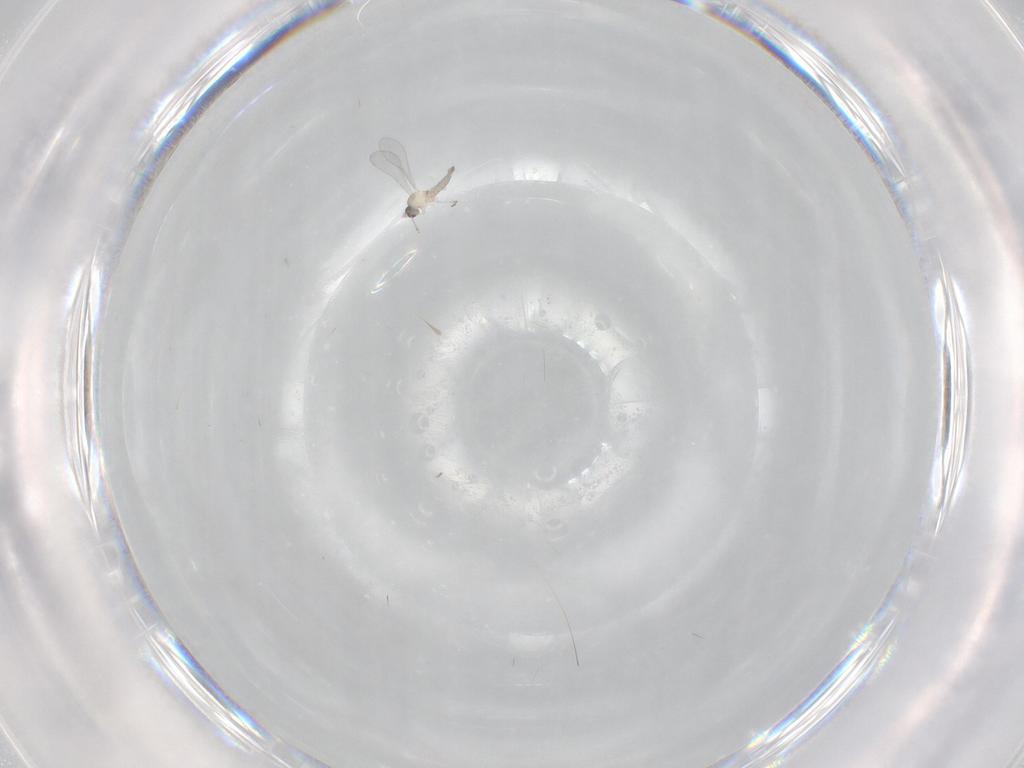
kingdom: Animalia
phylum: Arthropoda
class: Insecta
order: Diptera
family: Cecidomyiidae
